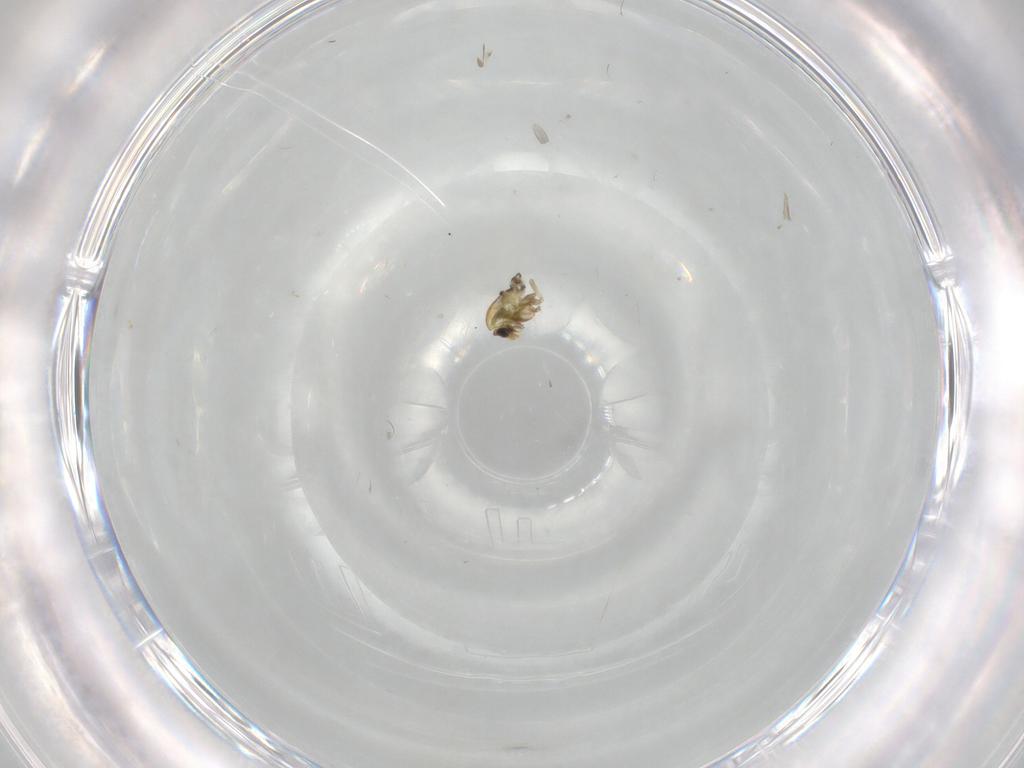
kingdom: Animalia
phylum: Arthropoda
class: Insecta
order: Diptera
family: Chironomidae
